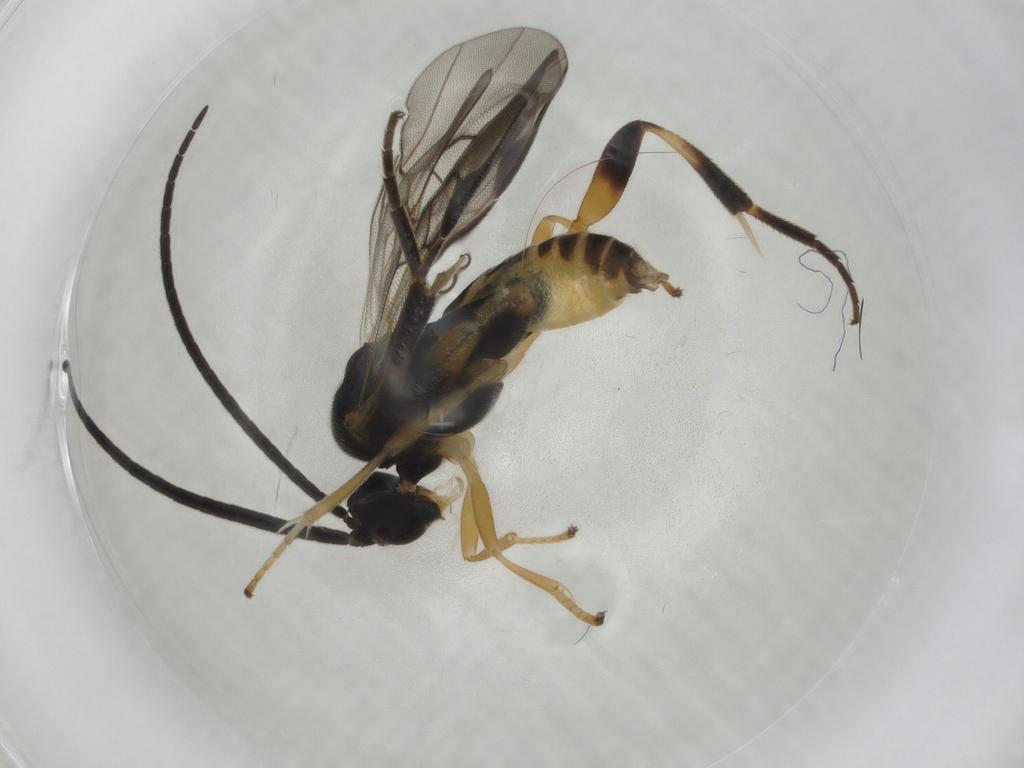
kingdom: Animalia
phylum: Arthropoda
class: Insecta
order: Hymenoptera
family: Braconidae
